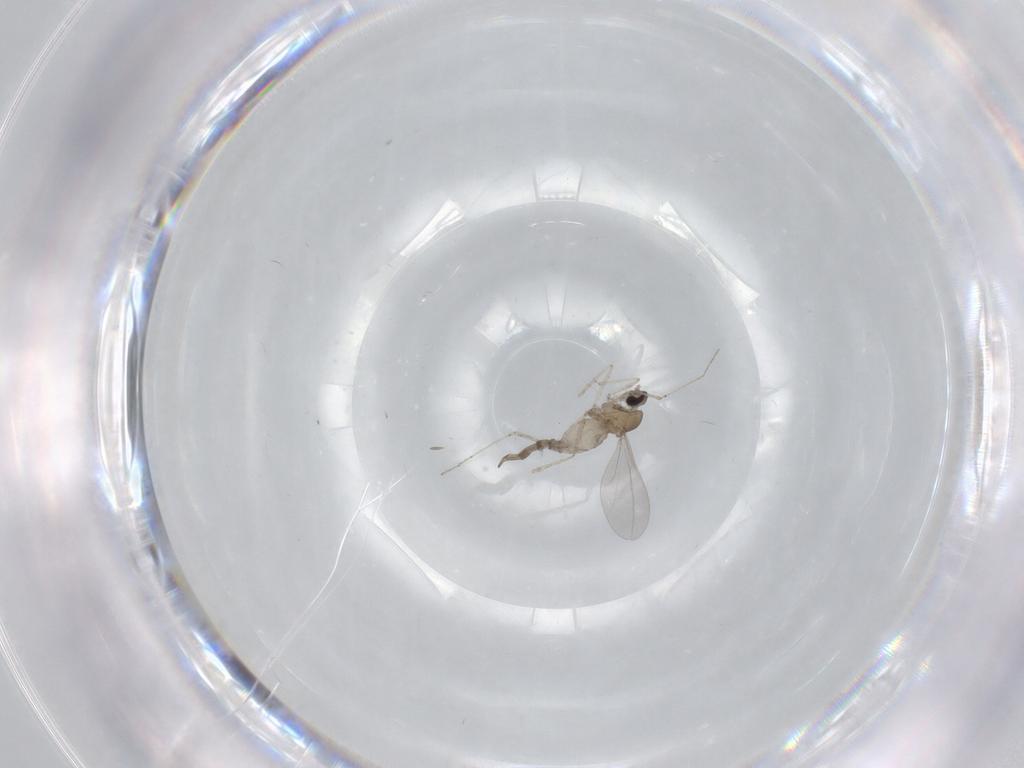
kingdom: Animalia
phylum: Arthropoda
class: Insecta
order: Diptera
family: Cecidomyiidae
